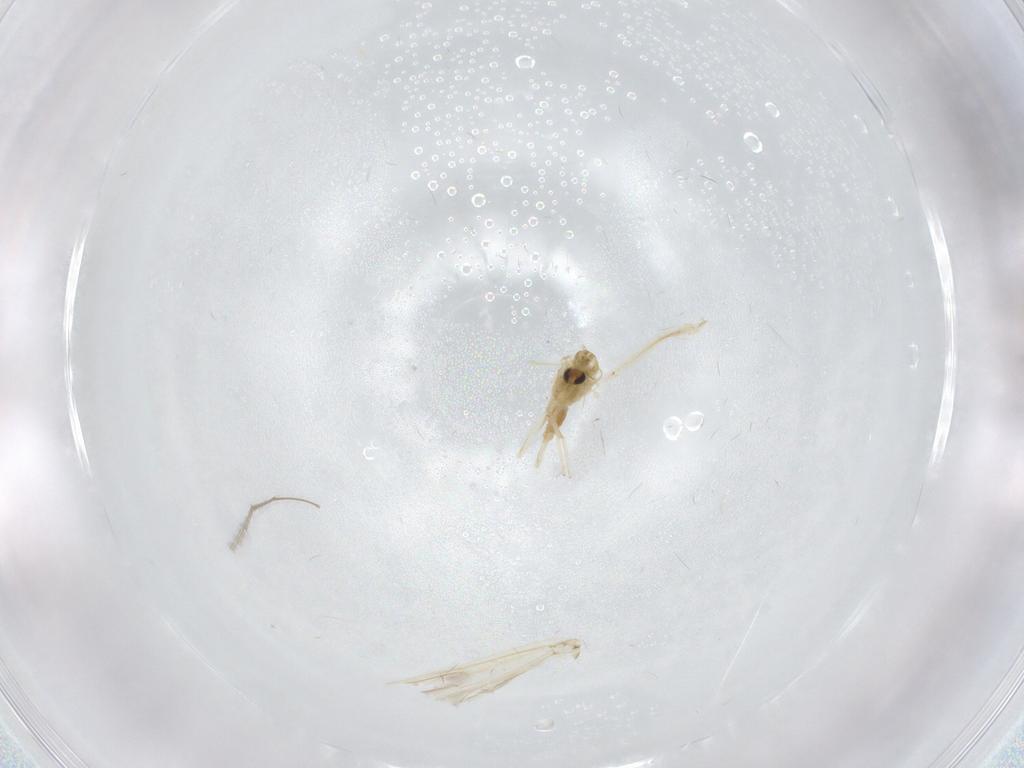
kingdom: Animalia
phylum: Arthropoda
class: Insecta
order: Diptera
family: Chironomidae
